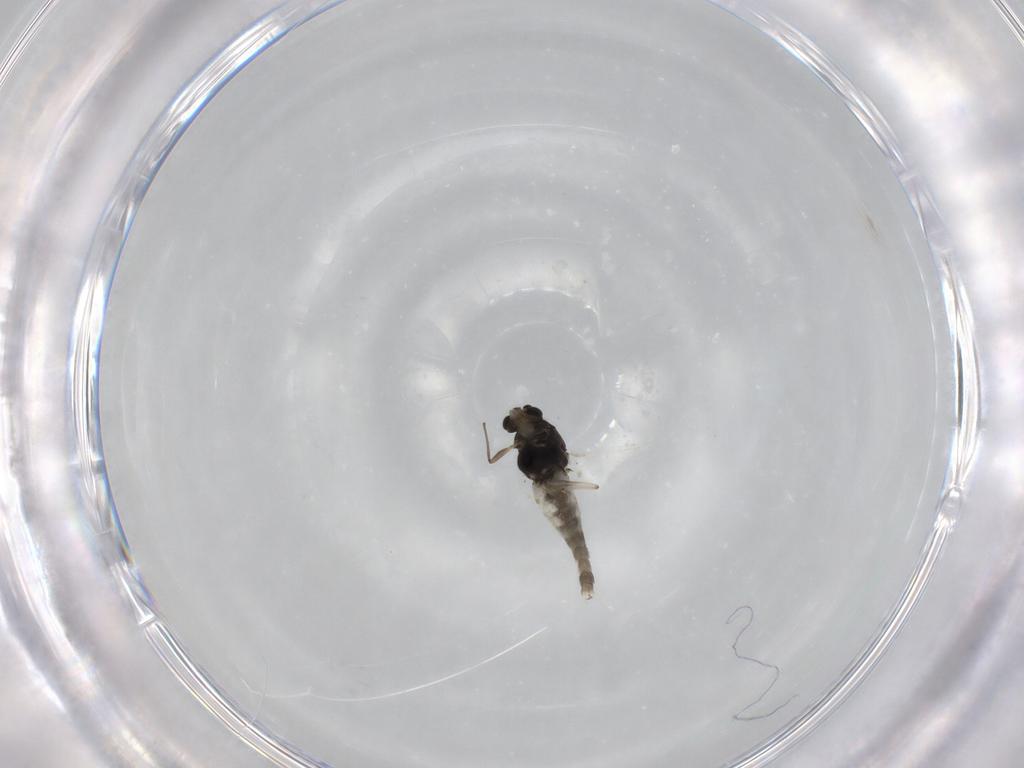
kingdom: Animalia
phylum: Arthropoda
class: Insecta
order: Diptera
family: Chironomidae
